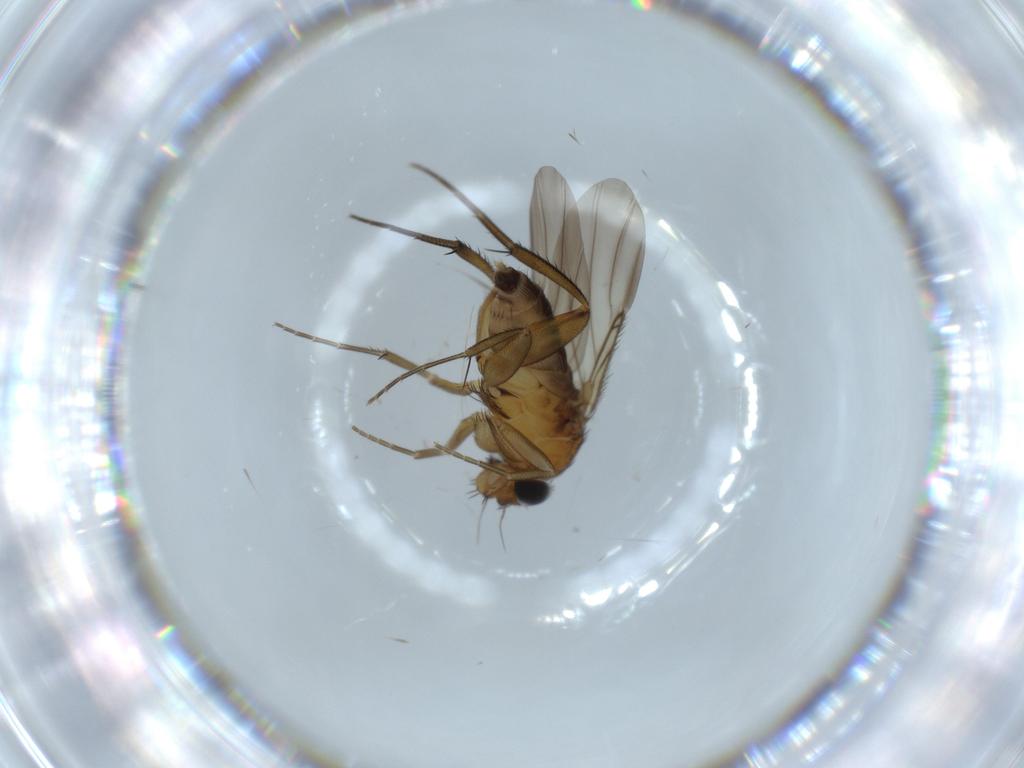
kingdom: Animalia
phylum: Arthropoda
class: Insecta
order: Diptera
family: Phoridae
